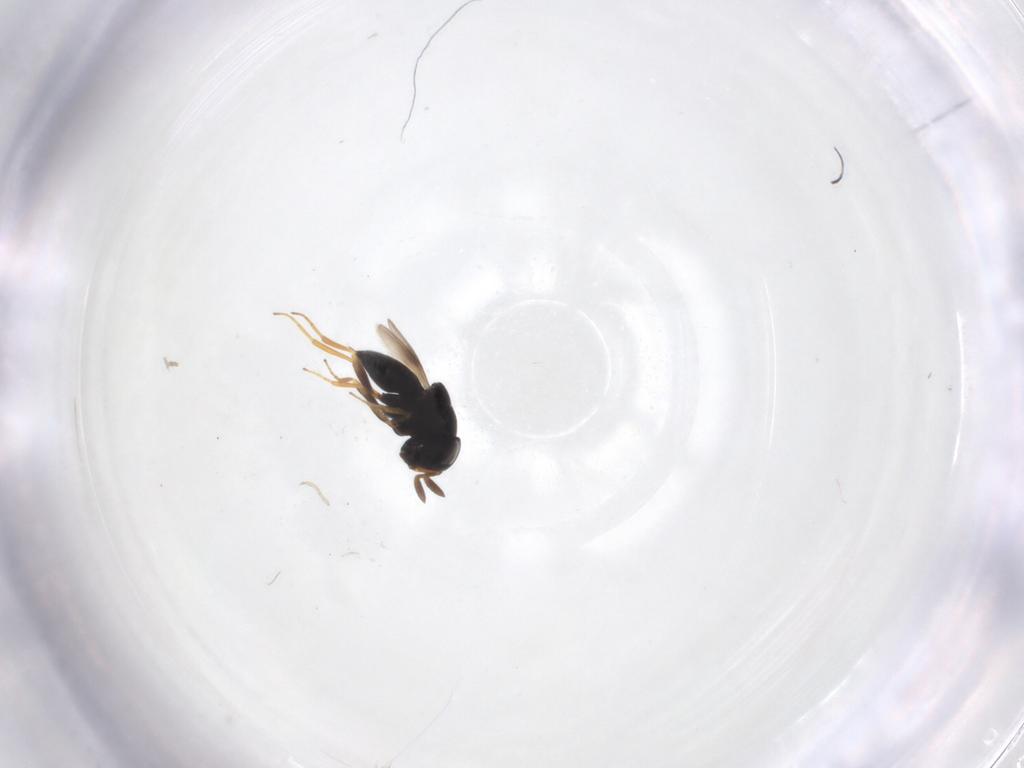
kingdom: Animalia
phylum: Arthropoda
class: Insecta
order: Hymenoptera
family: Scelionidae
